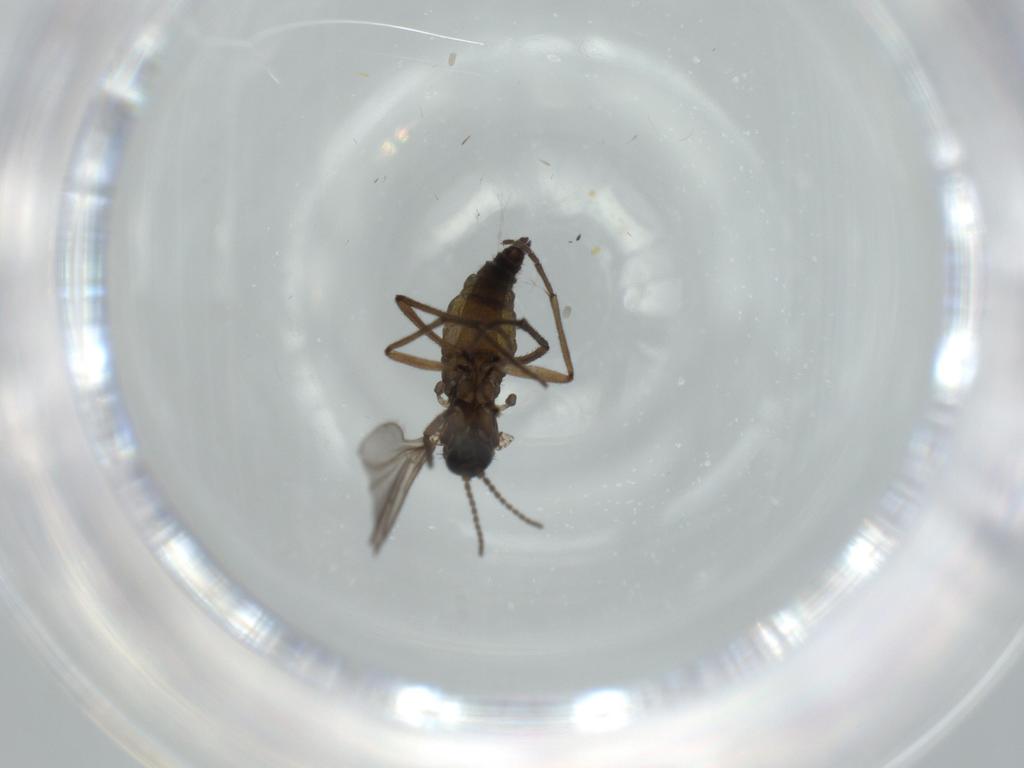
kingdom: Animalia
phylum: Arthropoda
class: Insecta
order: Diptera
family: Sciaridae
